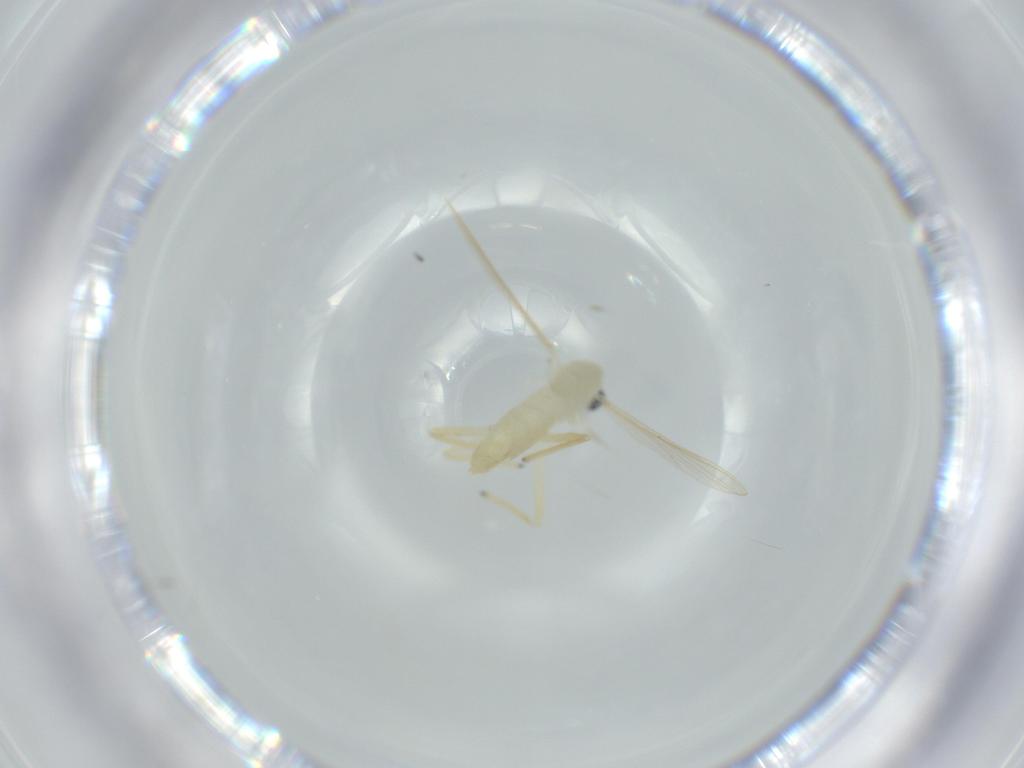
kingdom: Animalia
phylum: Arthropoda
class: Insecta
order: Diptera
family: Chironomidae
